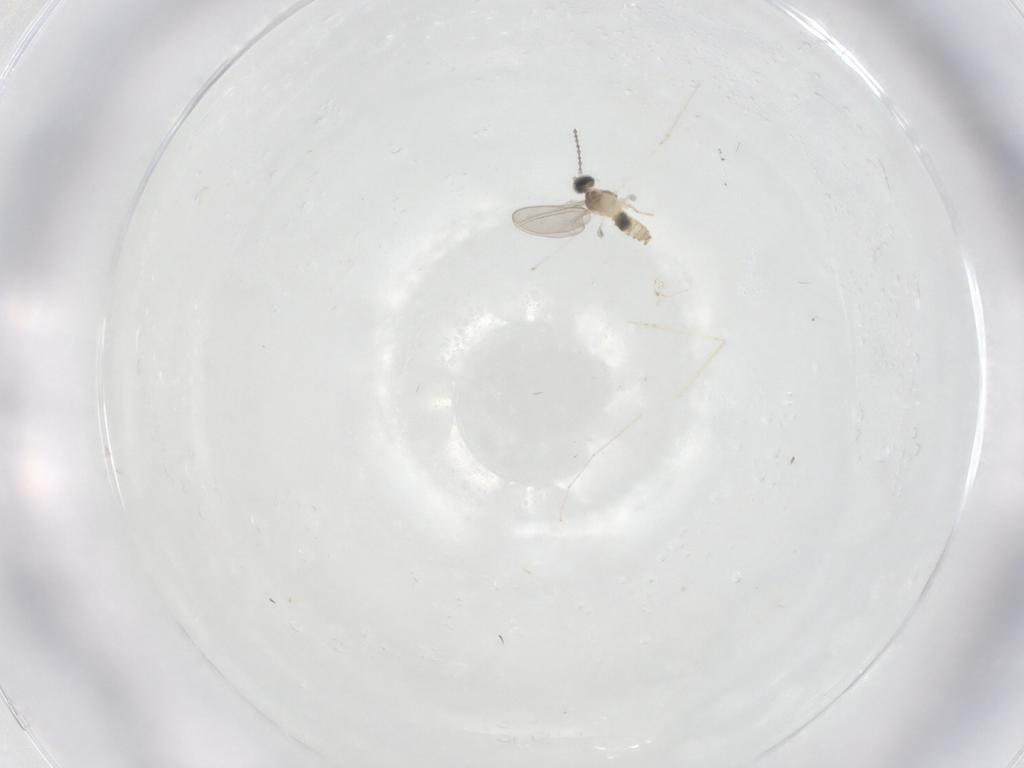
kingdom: Animalia
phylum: Arthropoda
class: Insecta
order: Diptera
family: Cecidomyiidae
